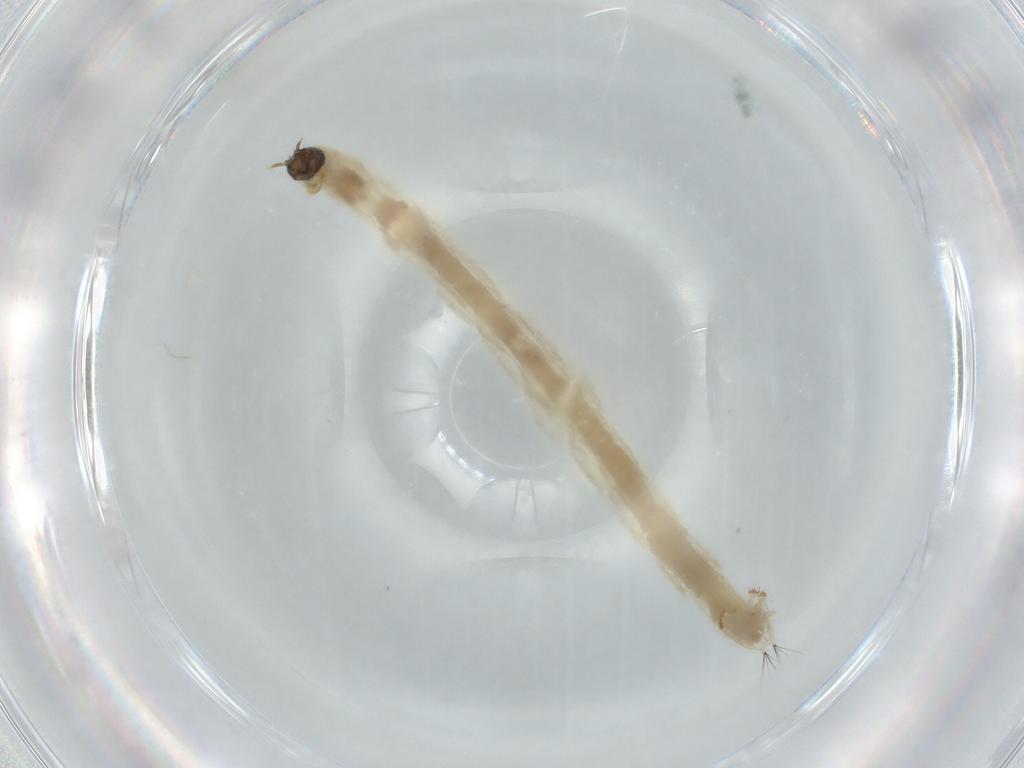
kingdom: Animalia
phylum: Arthropoda
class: Insecta
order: Diptera
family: Chironomidae
